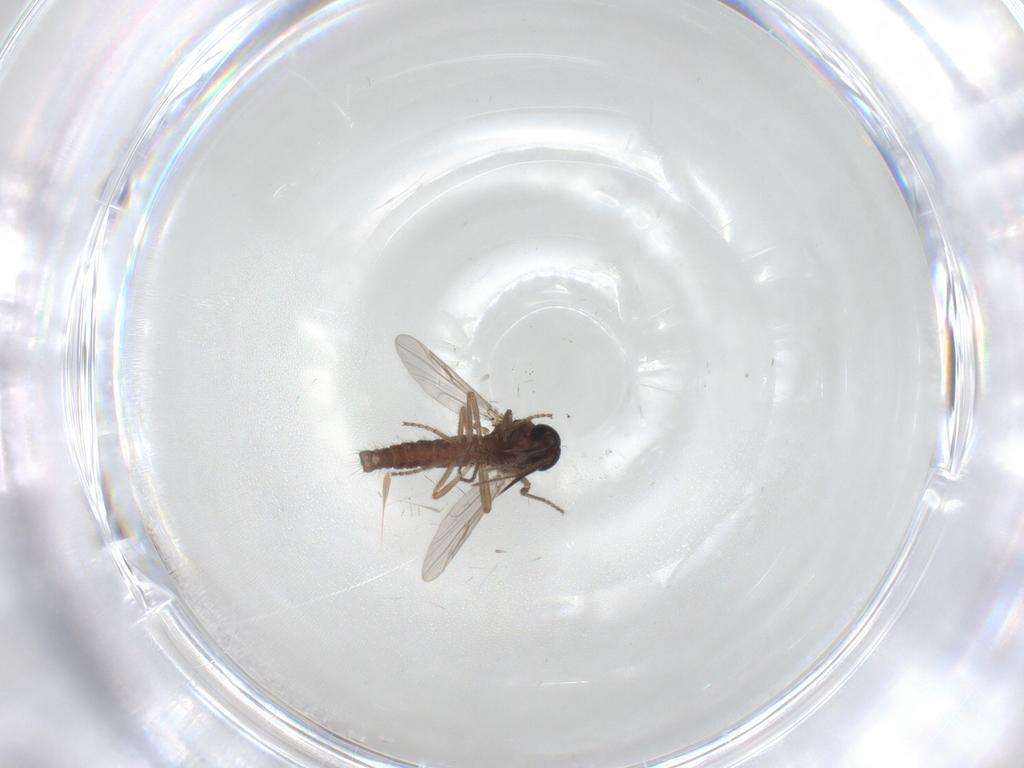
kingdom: Animalia
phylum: Arthropoda
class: Insecta
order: Diptera
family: Ceratopogonidae
